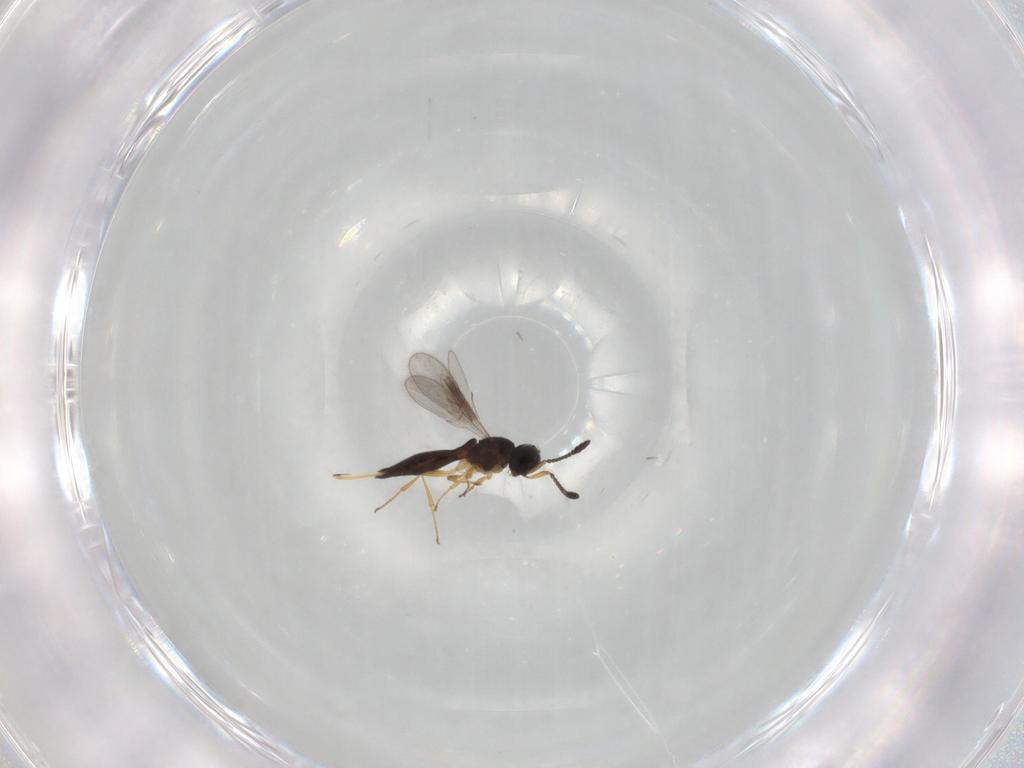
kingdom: Animalia
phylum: Arthropoda
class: Insecta
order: Hymenoptera
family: Scelionidae
